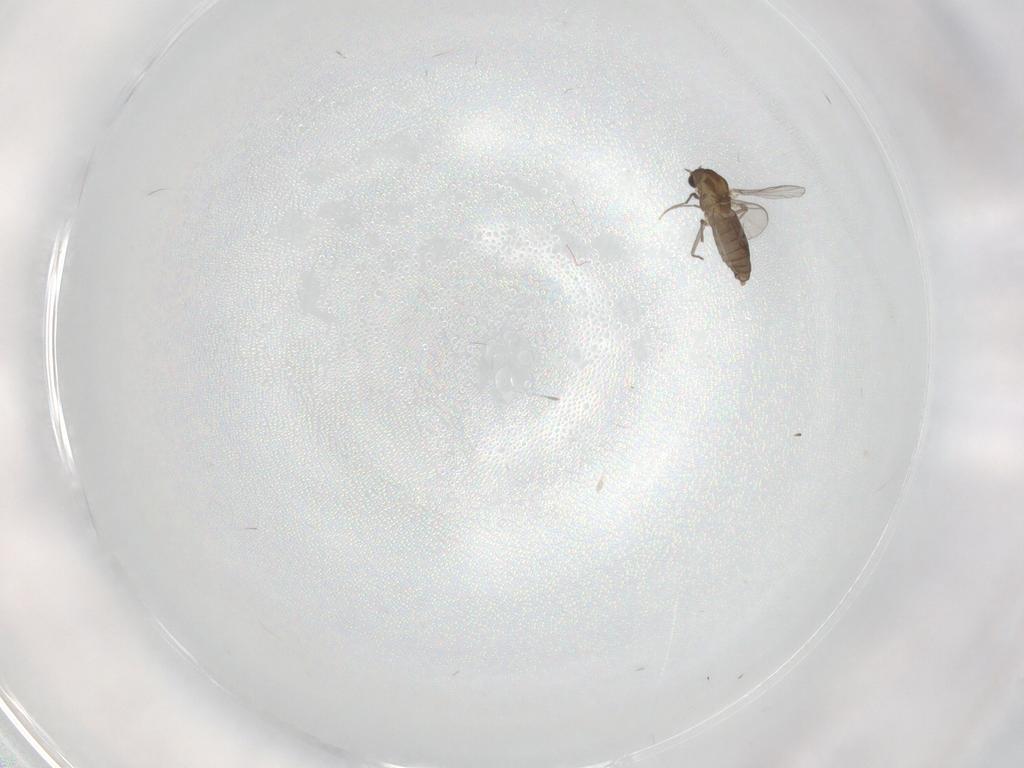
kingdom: Animalia
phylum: Arthropoda
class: Insecta
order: Diptera
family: Chironomidae
